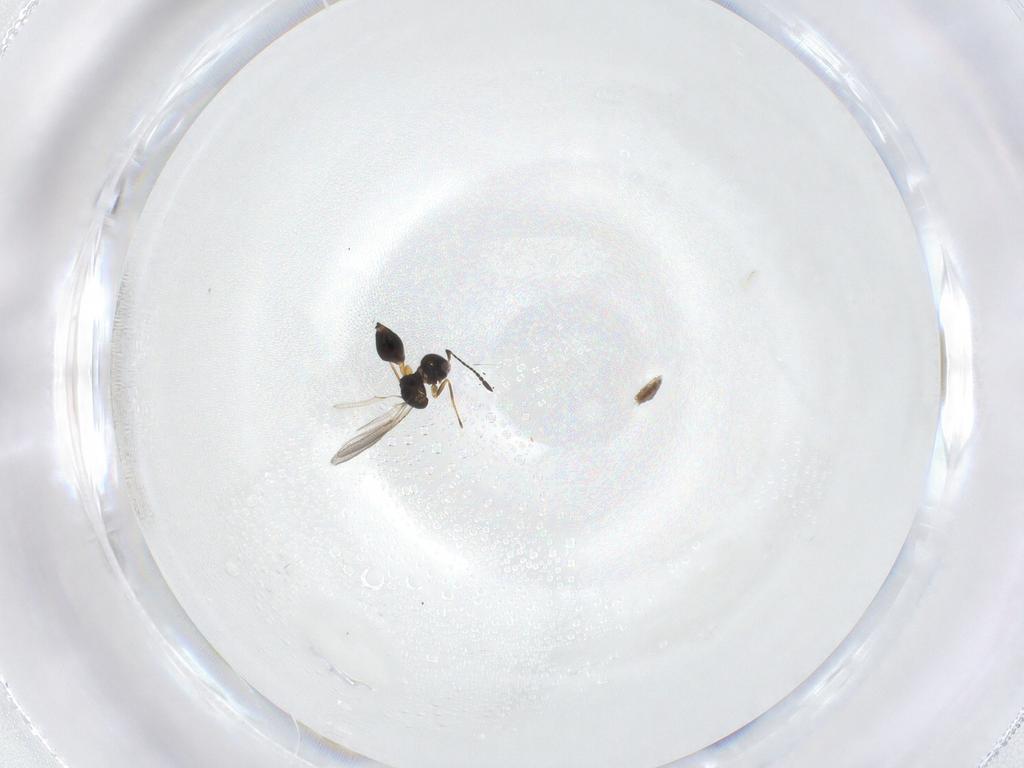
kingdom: Animalia
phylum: Arthropoda
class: Insecta
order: Hymenoptera
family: Mymaridae
